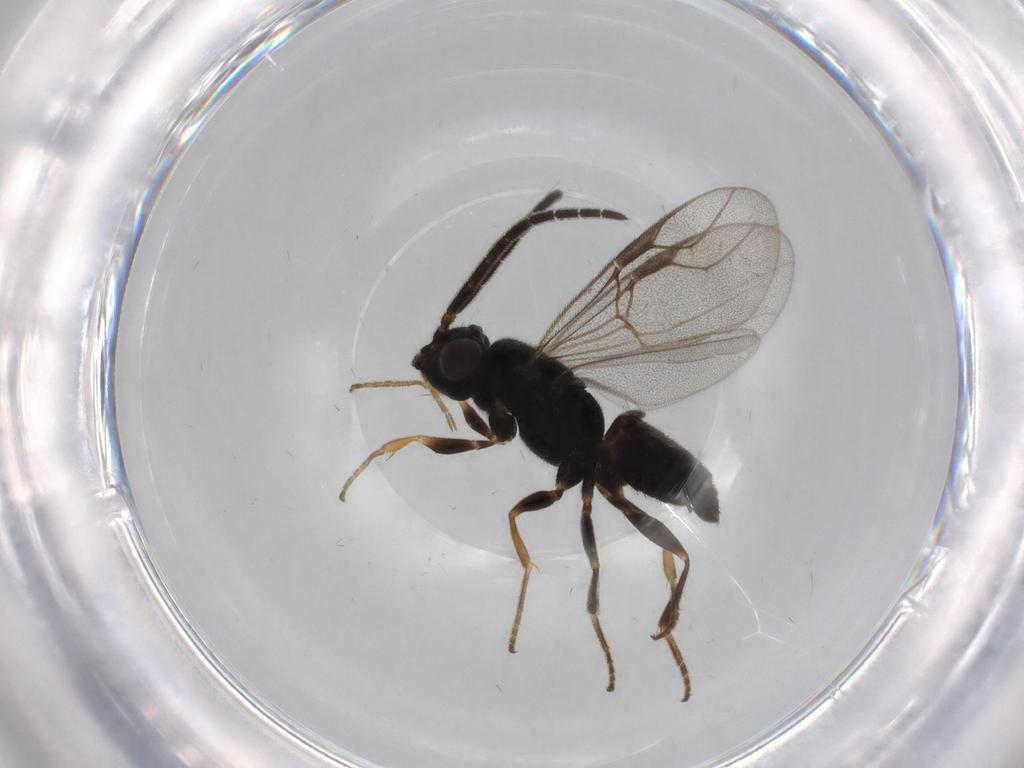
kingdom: Animalia
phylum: Arthropoda
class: Insecta
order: Hymenoptera
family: Dryinidae
